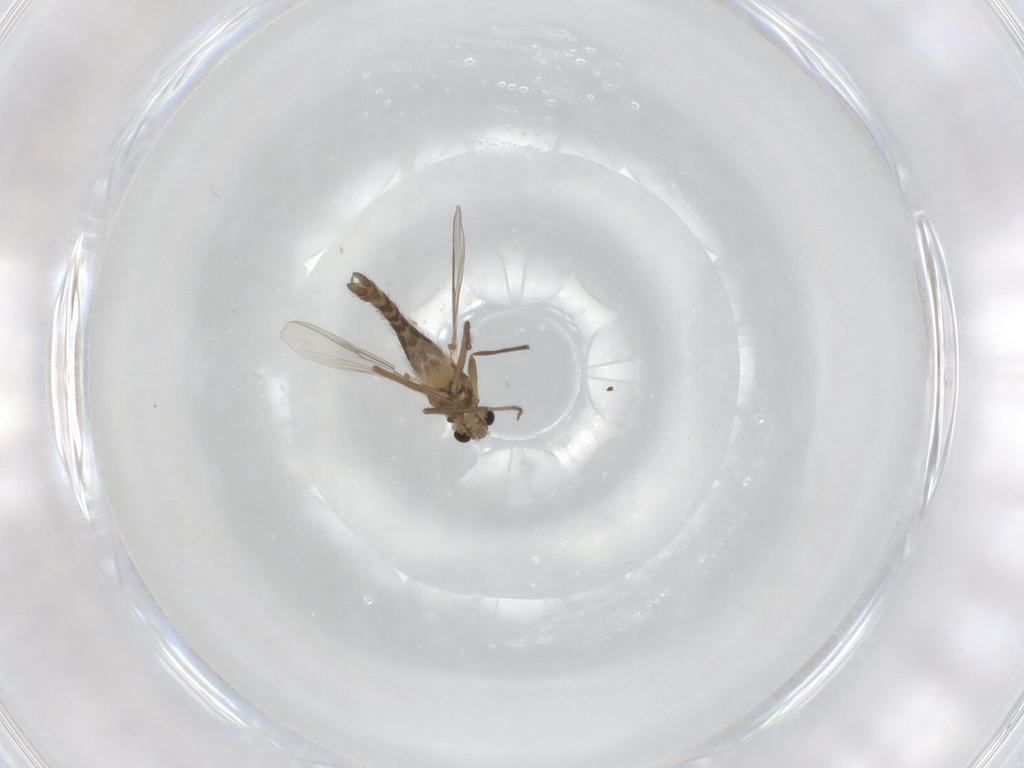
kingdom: Animalia
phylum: Arthropoda
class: Insecta
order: Diptera
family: Chironomidae
